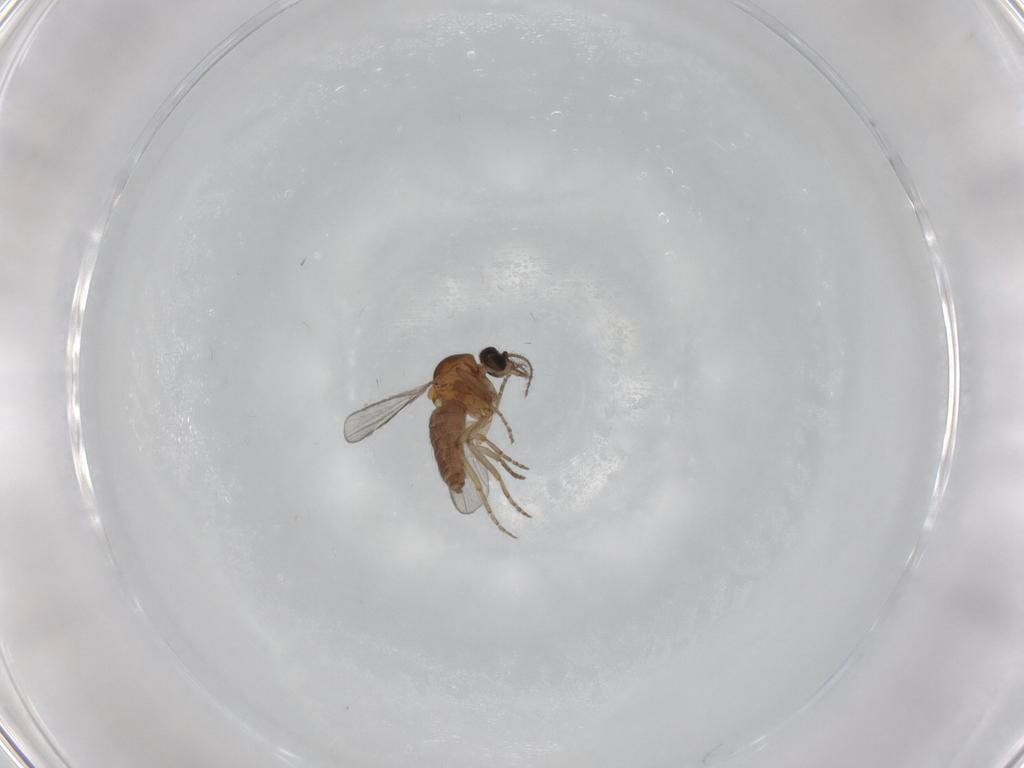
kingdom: Animalia
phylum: Arthropoda
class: Insecta
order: Diptera
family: Ceratopogonidae
